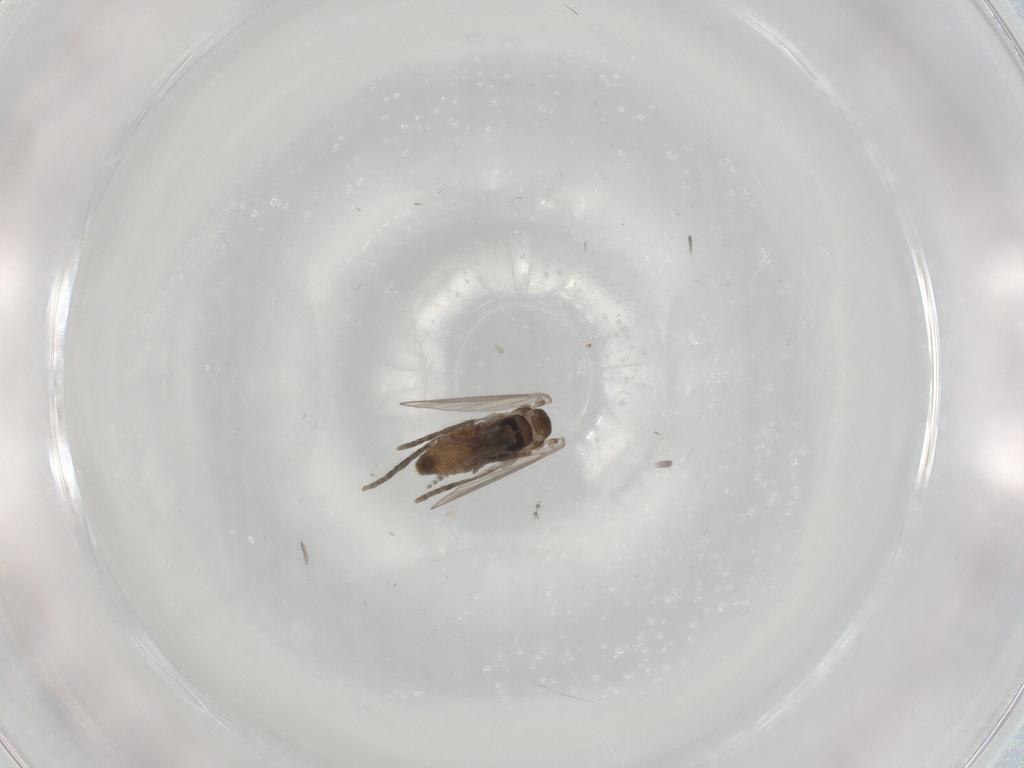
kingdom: Animalia
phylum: Arthropoda
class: Insecta
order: Diptera
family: Psychodidae
